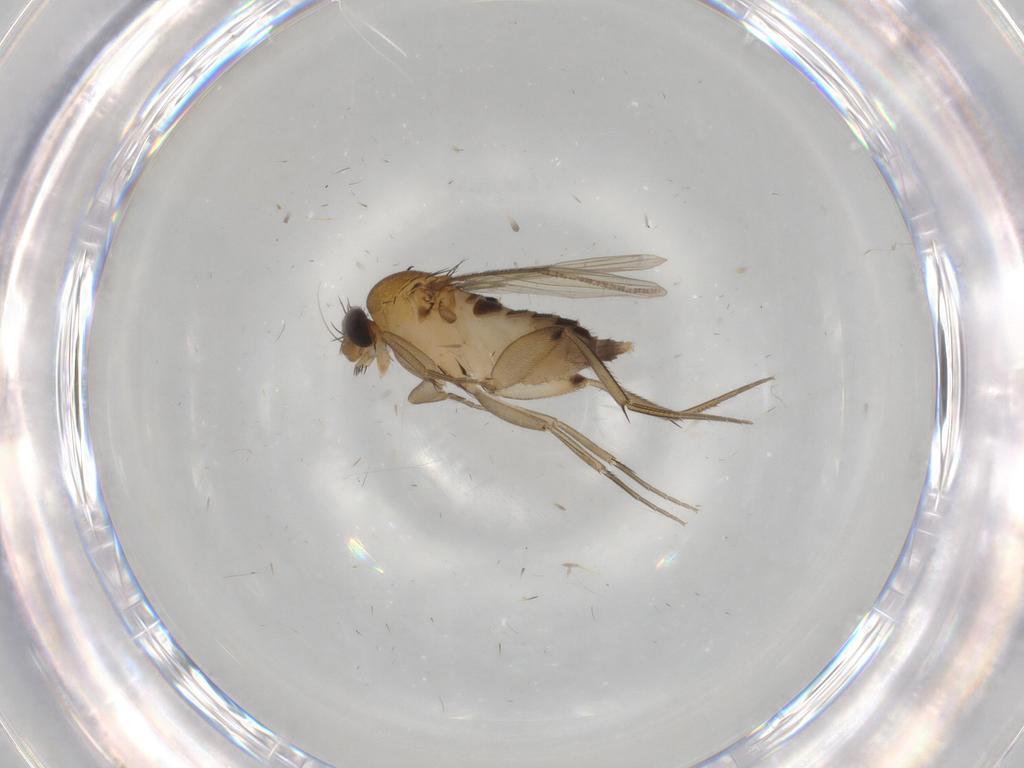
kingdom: Animalia
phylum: Arthropoda
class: Insecta
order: Diptera
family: Phoridae
